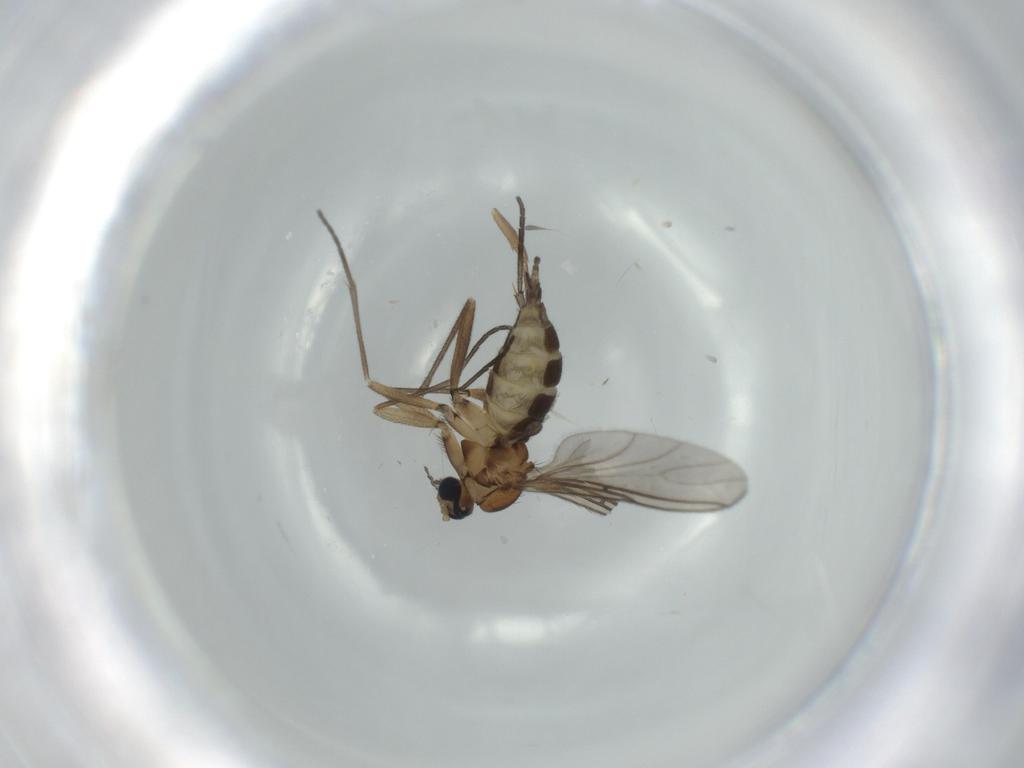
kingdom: Animalia
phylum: Arthropoda
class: Insecta
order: Diptera
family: Sciaridae
